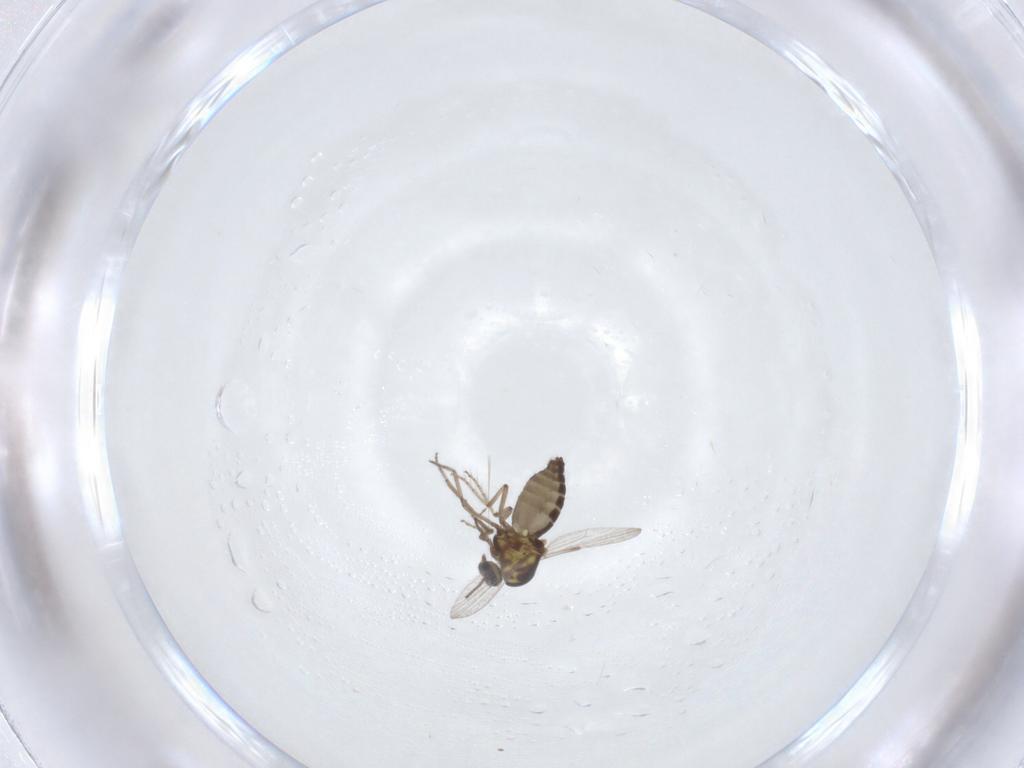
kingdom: Animalia
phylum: Arthropoda
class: Insecta
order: Diptera
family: Ceratopogonidae
